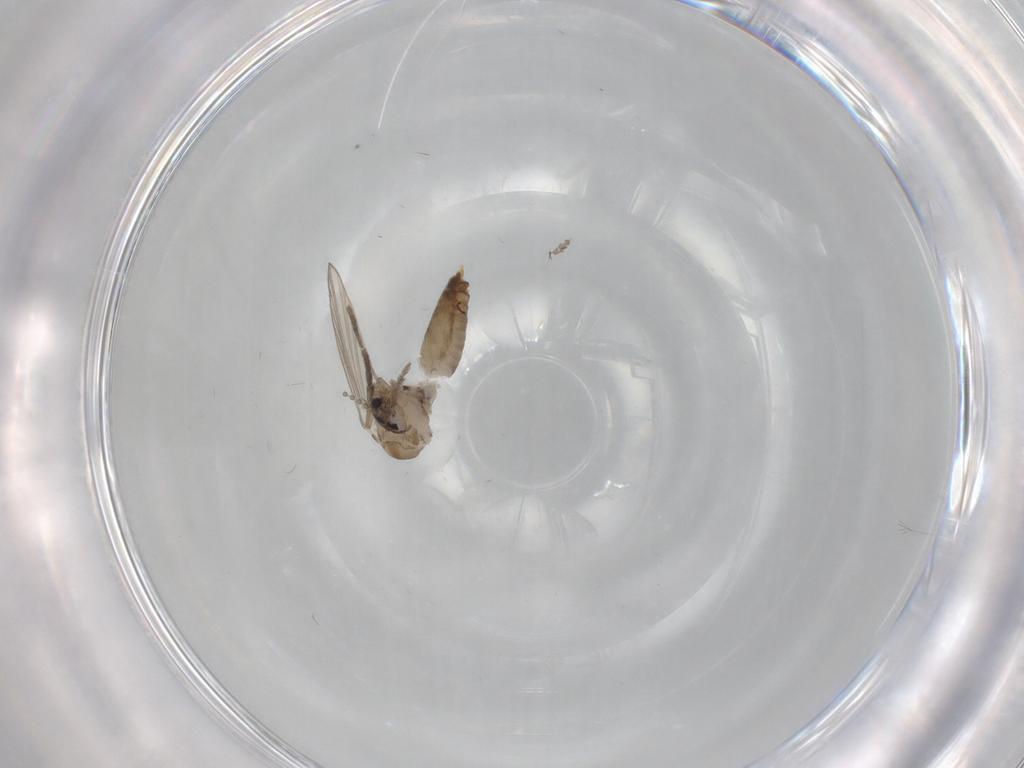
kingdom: Animalia
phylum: Arthropoda
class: Insecta
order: Diptera
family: Psychodidae
